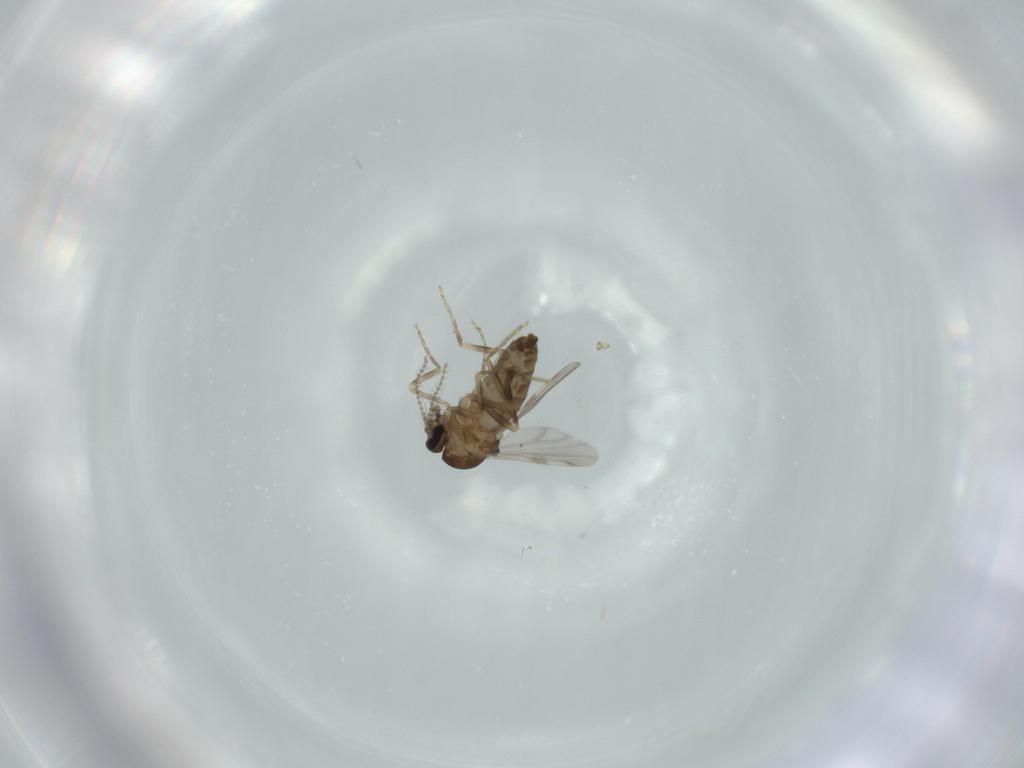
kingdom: Animalia
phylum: Arthropoda
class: Insecta
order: Diptera
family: Ceratopogonidae
